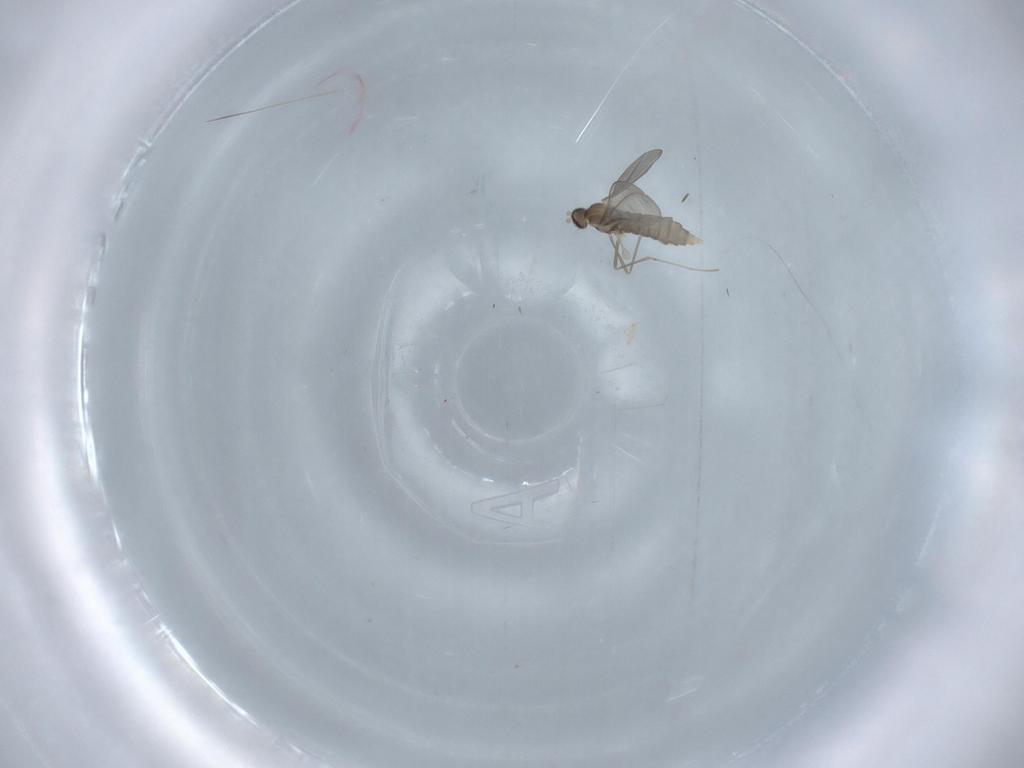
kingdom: Animalia
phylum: Arthropoda
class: Insecta
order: Diptera
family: Cecidomyiidae
